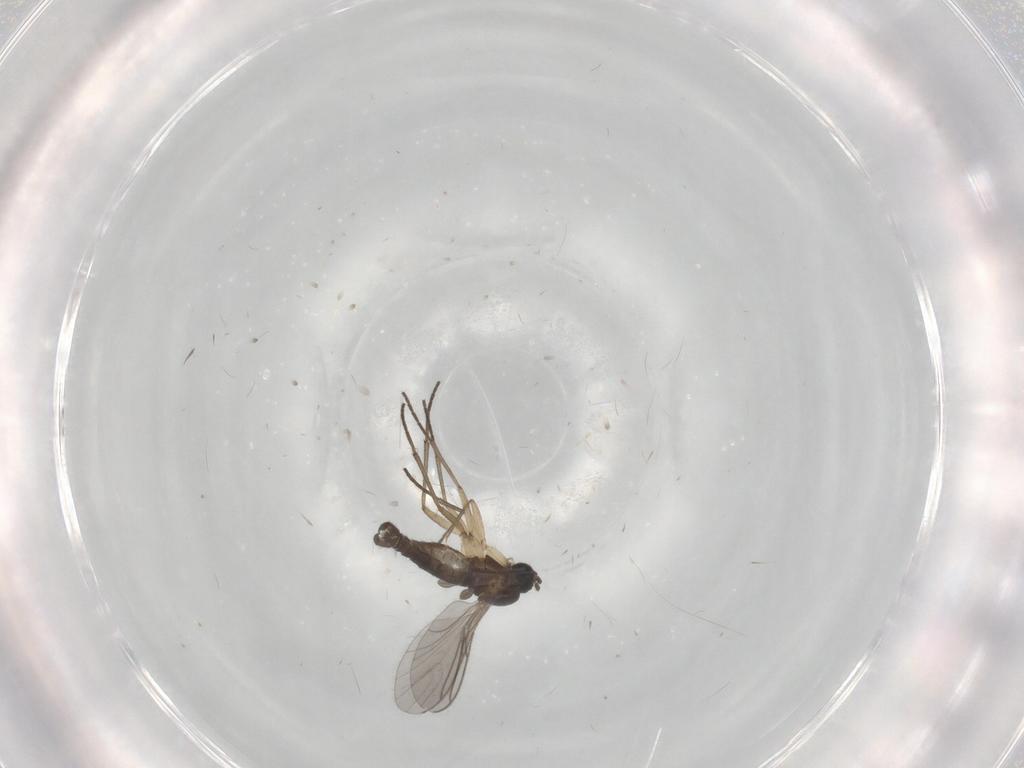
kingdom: Animalia
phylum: Arthropoda
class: Insecta
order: Diptera
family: Sciaridae
